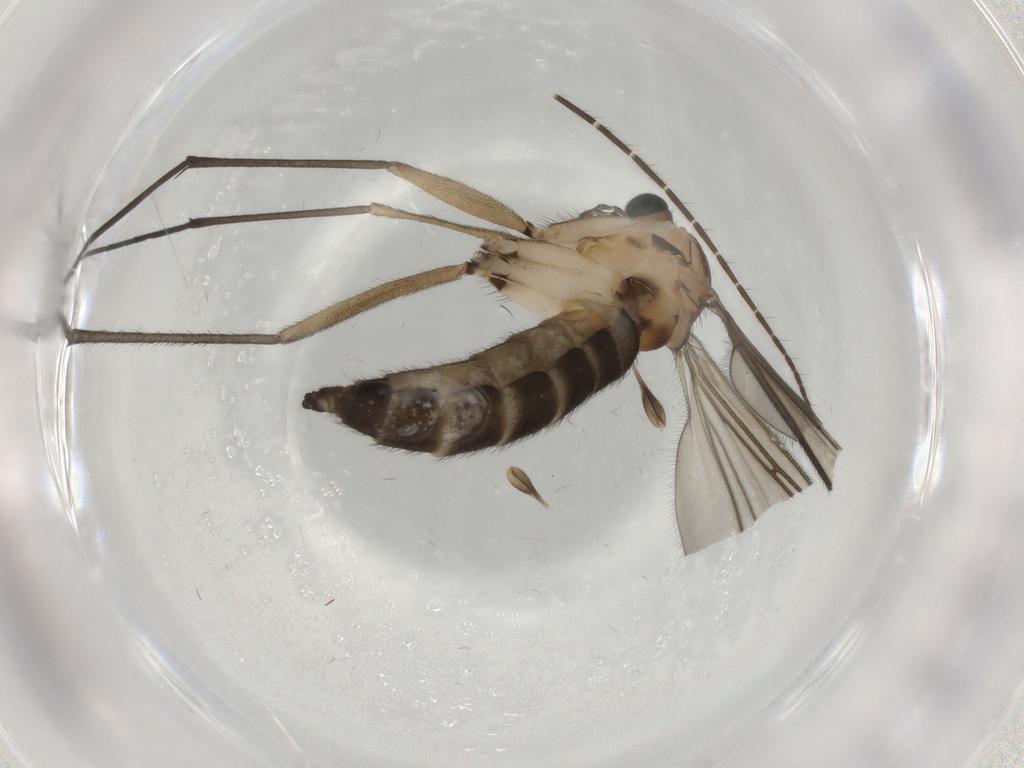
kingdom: Animalia
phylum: Arthropoda
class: Insecta
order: Diptera
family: Sciaridae
